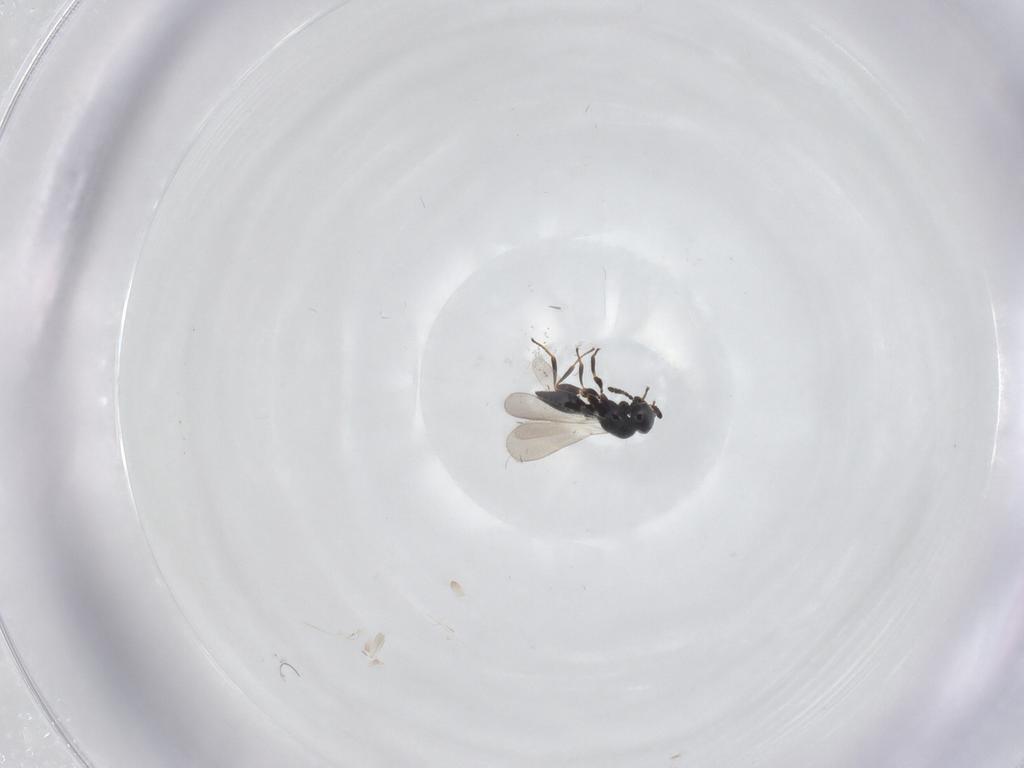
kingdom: Animalia
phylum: Arthropoda
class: Insecta
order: Hymenoptera
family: Platygastridae
